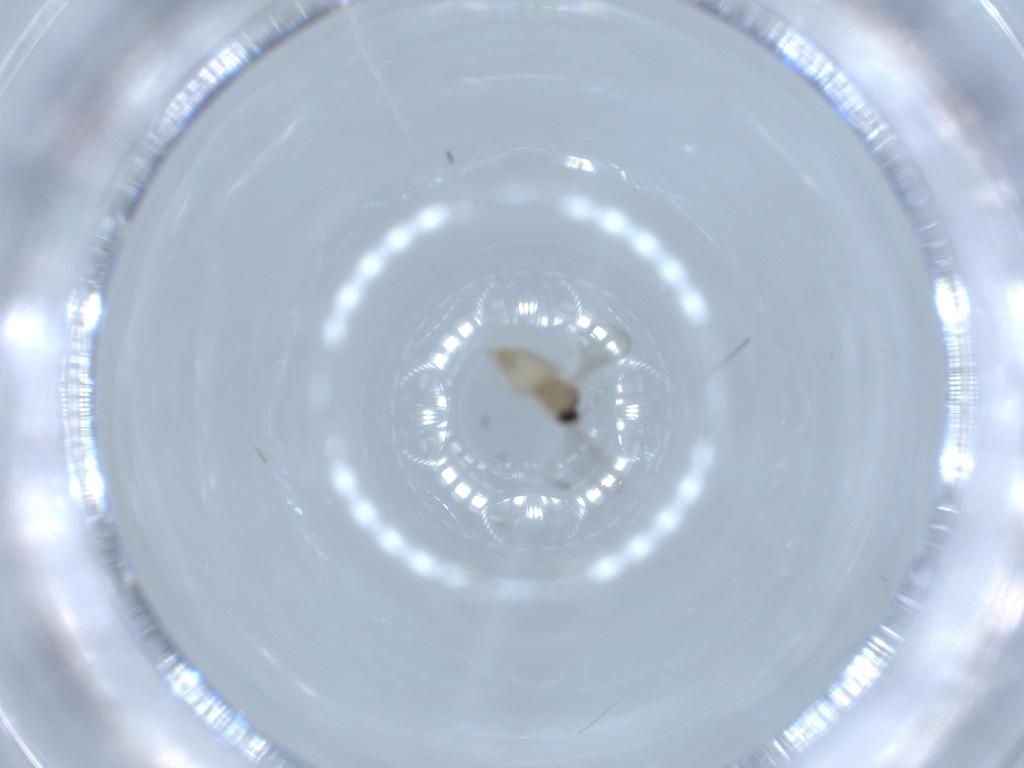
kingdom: Animalia
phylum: Arthropoda
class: Insecta
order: Diptera
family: Cecidomyiidae
